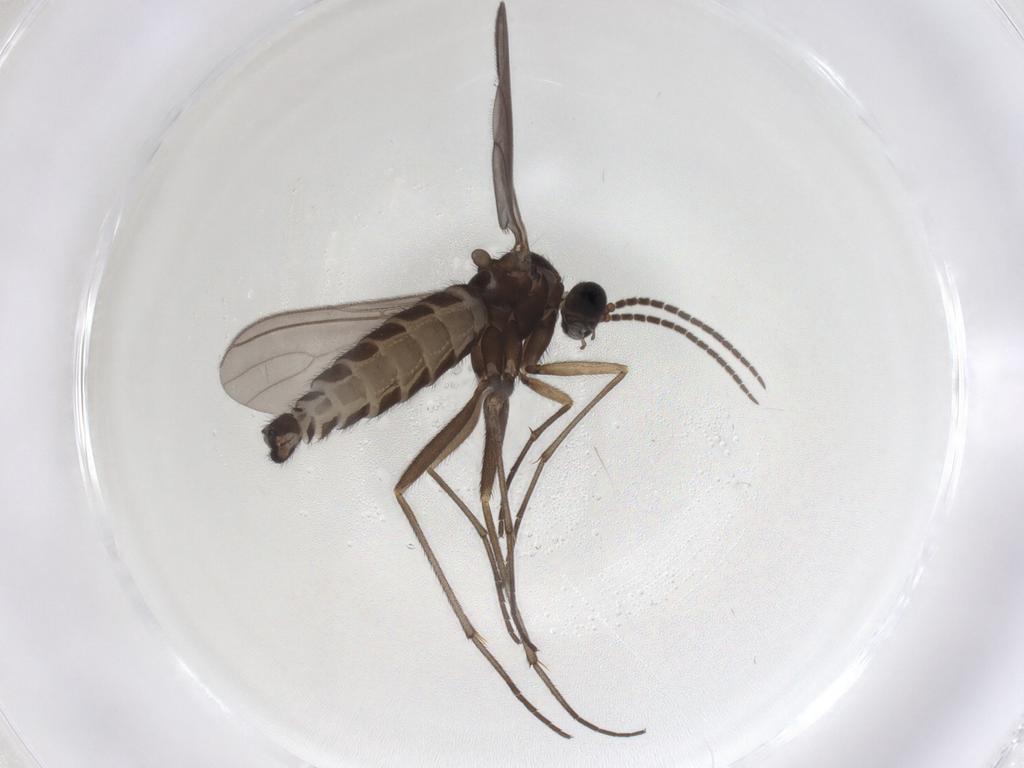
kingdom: Animalia
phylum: Arthropoda
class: Insecta
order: Diptera
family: Sciaridae
